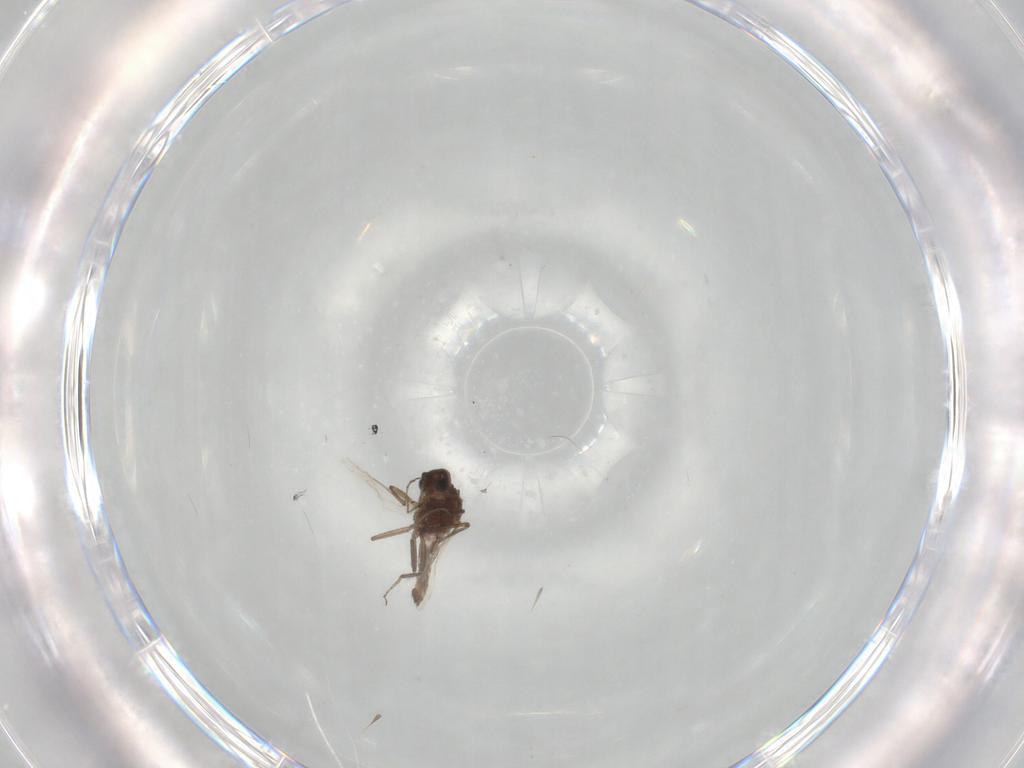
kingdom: Animalia
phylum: Arthropoda
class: Insecta
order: Diptera
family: Ceratopogonidae
